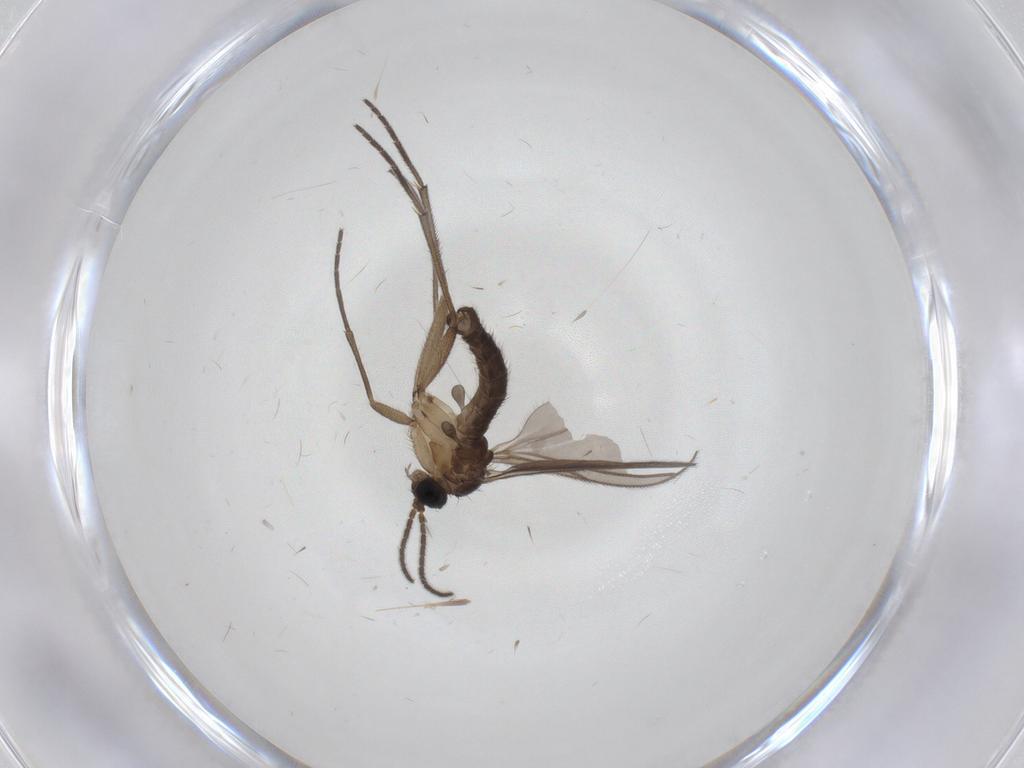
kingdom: Animalia
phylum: Arthropoda
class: Insecta
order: Diptera
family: Sciaridae
